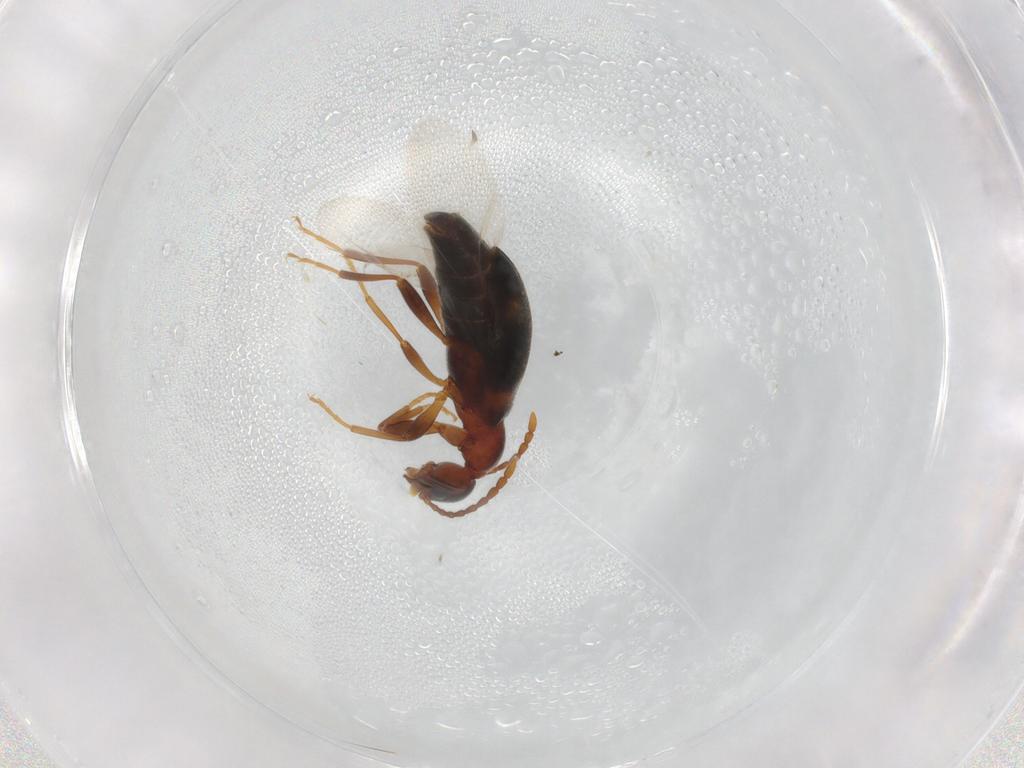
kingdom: Animalia
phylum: Arthropoda
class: Insecta
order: Coleoptera
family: Anthicidae
